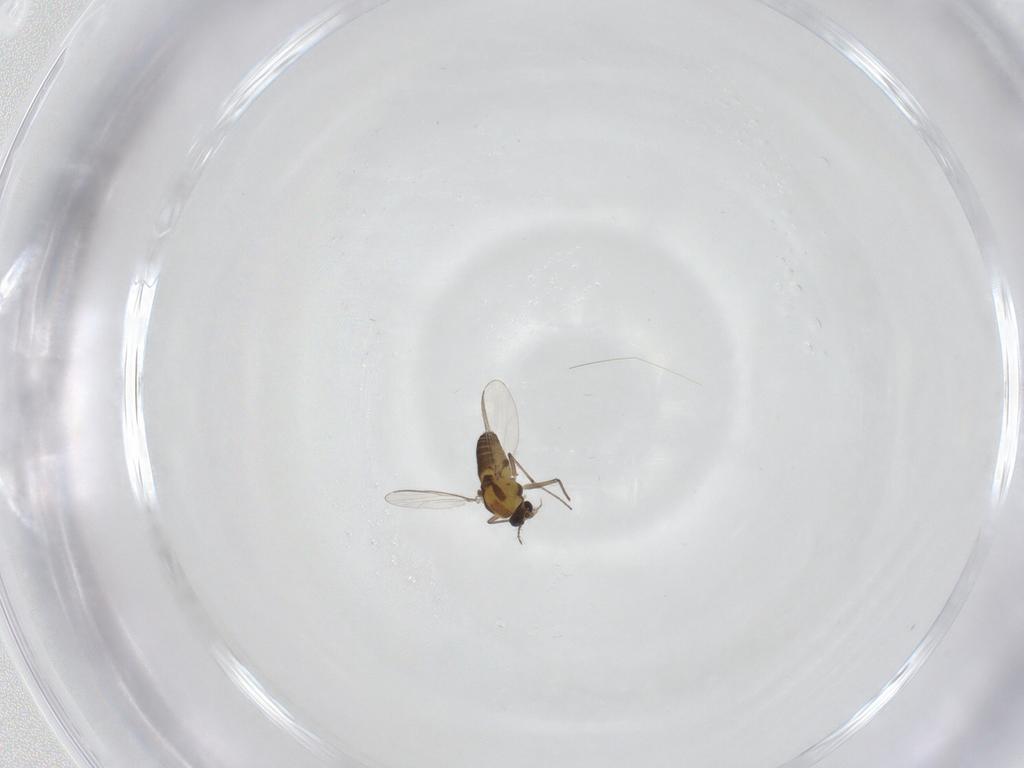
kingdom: Animalia
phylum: Arthropoda
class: Insecta
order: Diptera
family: Chironomidae
